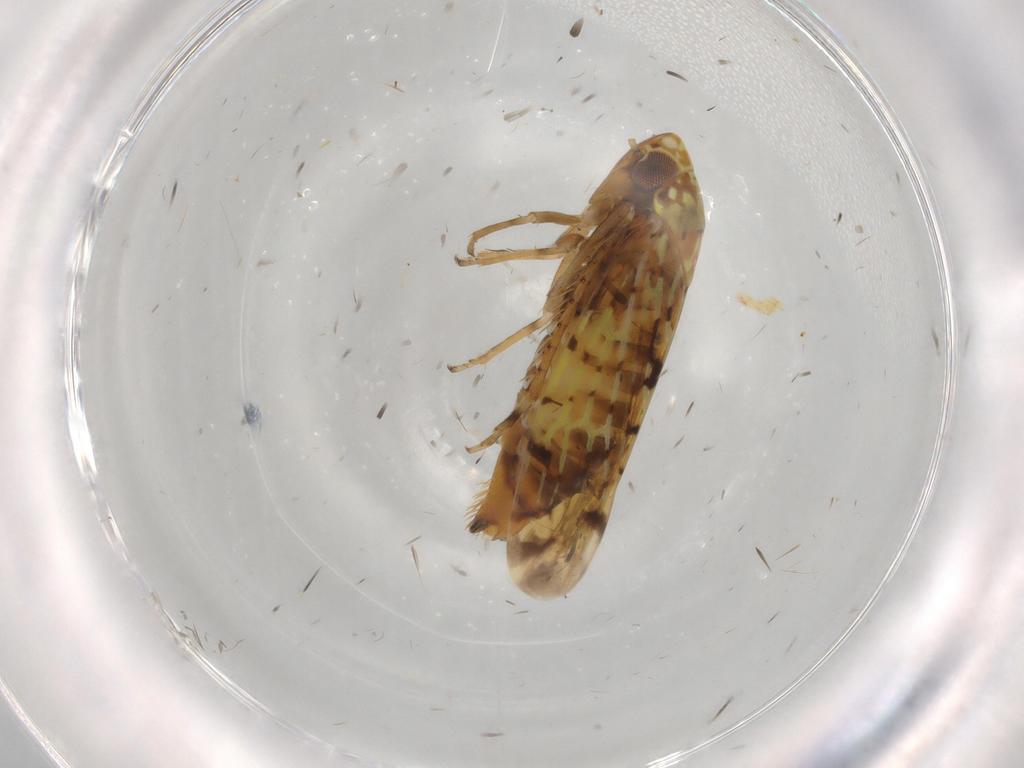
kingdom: Animalia
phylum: Arthropoda
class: Insecta
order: Hemiptera
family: Cicadellidae
